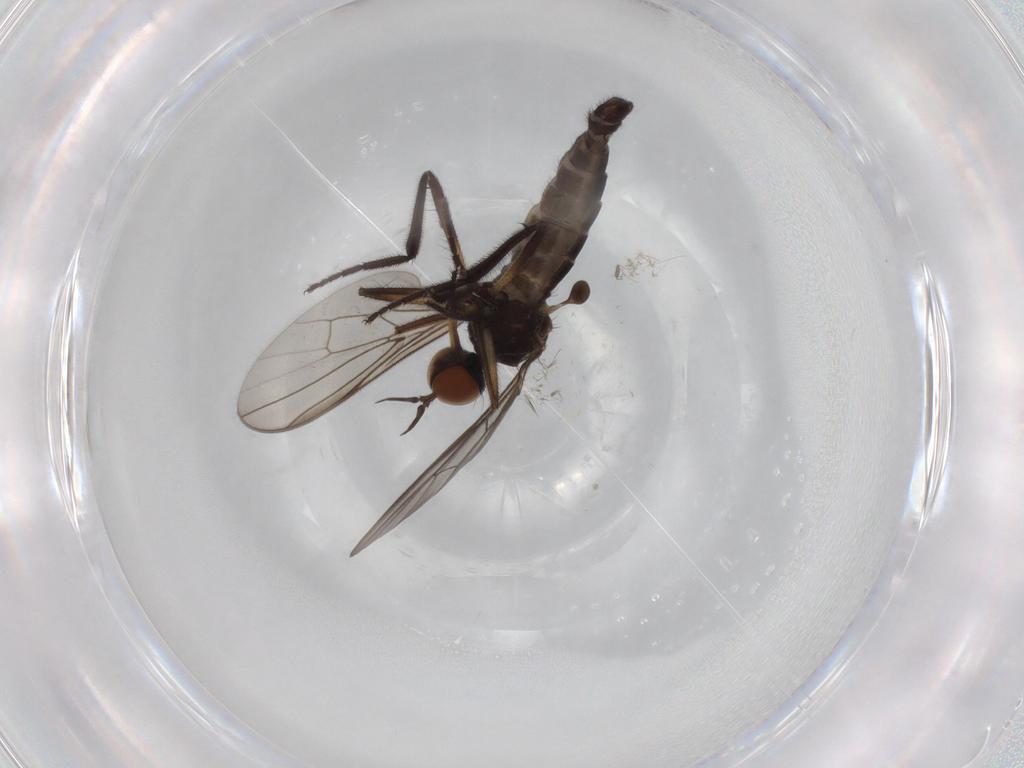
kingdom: Animalia
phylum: Arthropoda
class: Insecta
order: Diptera
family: Empididae
